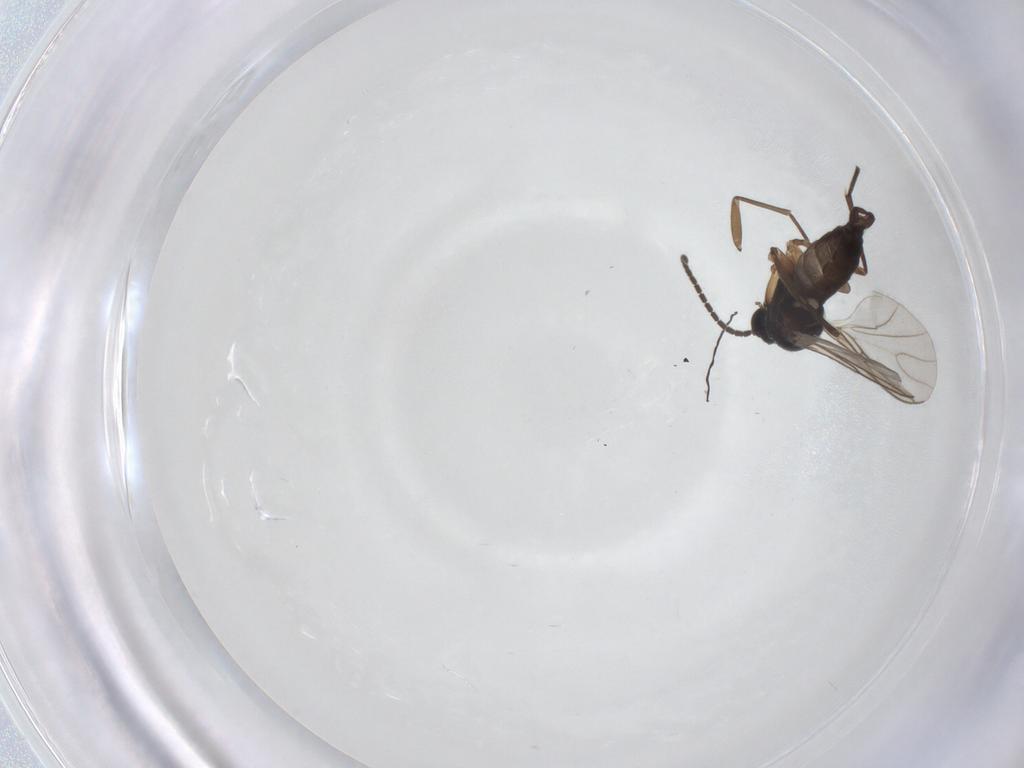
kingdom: Animalia
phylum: Arthropoda
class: Insecta
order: Diptera
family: Sciaridae
